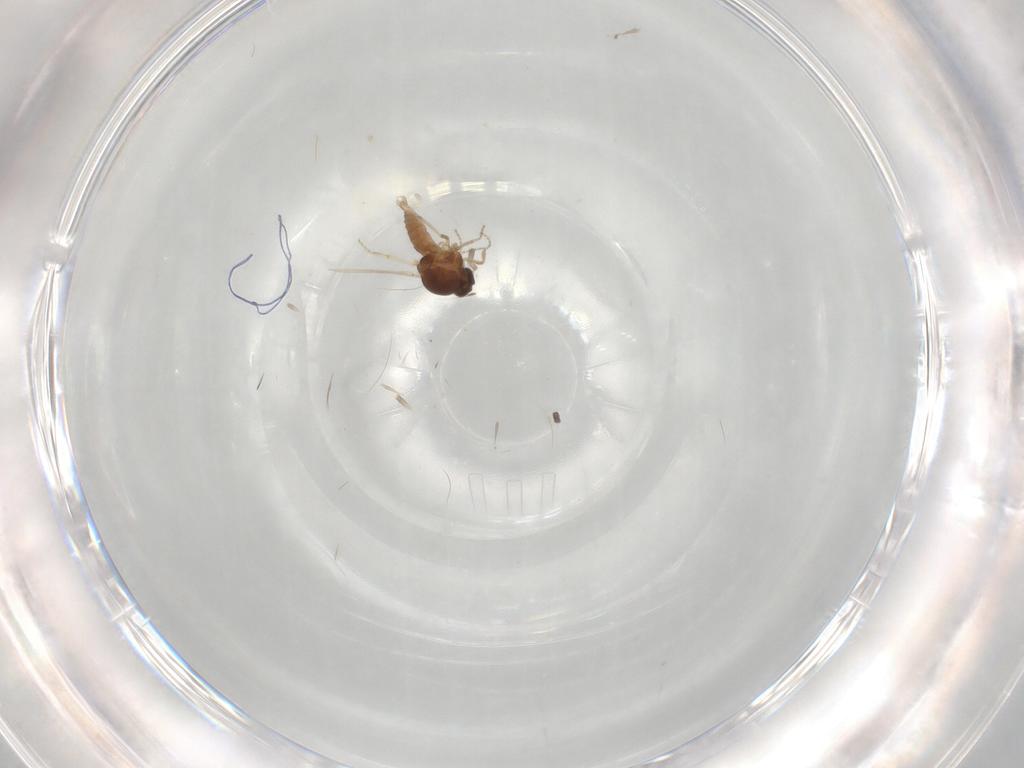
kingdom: Animalia
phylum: Arthropoda
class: Insecta
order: Diptera
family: Ceratopogonidae
